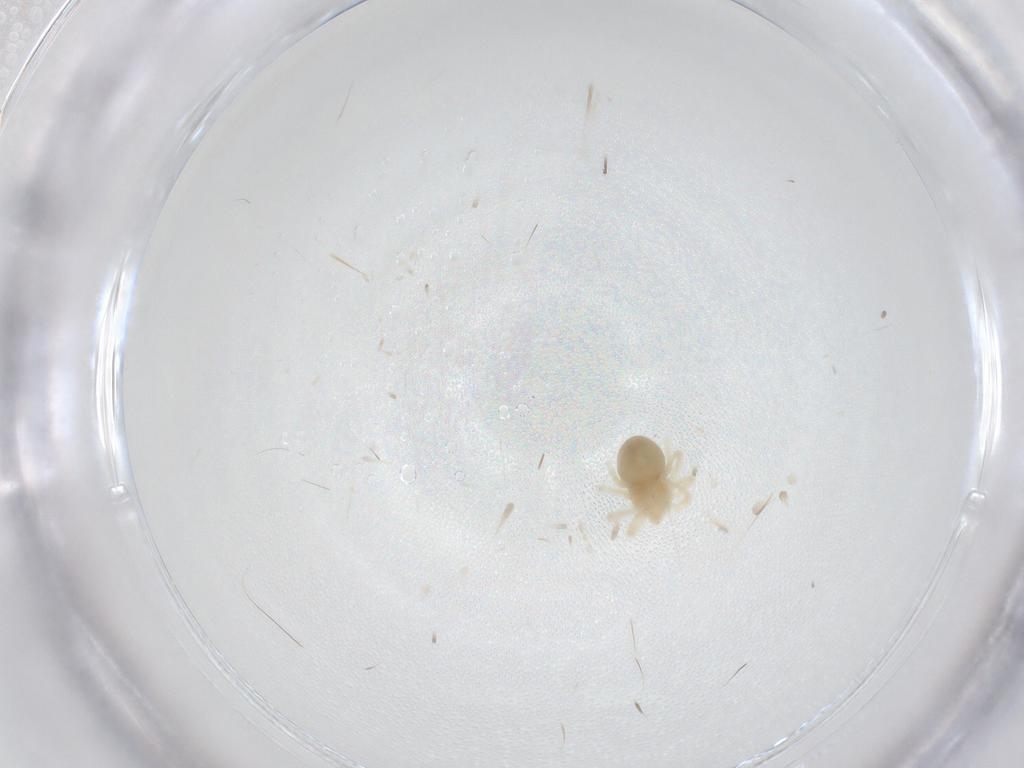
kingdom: Animalia
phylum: Arthropoda
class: Arachnida
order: Trombidiformes
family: Anystidae
